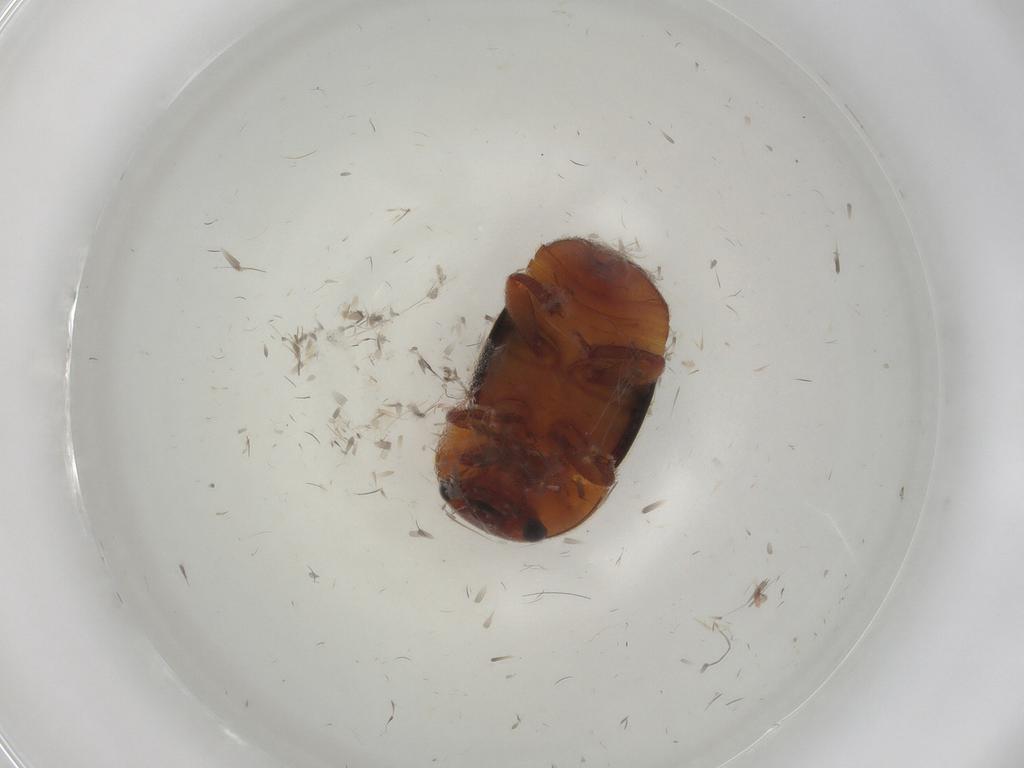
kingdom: Animalia
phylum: Arthropoda
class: Insecta
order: Coleoptera
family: Nitidulidae
